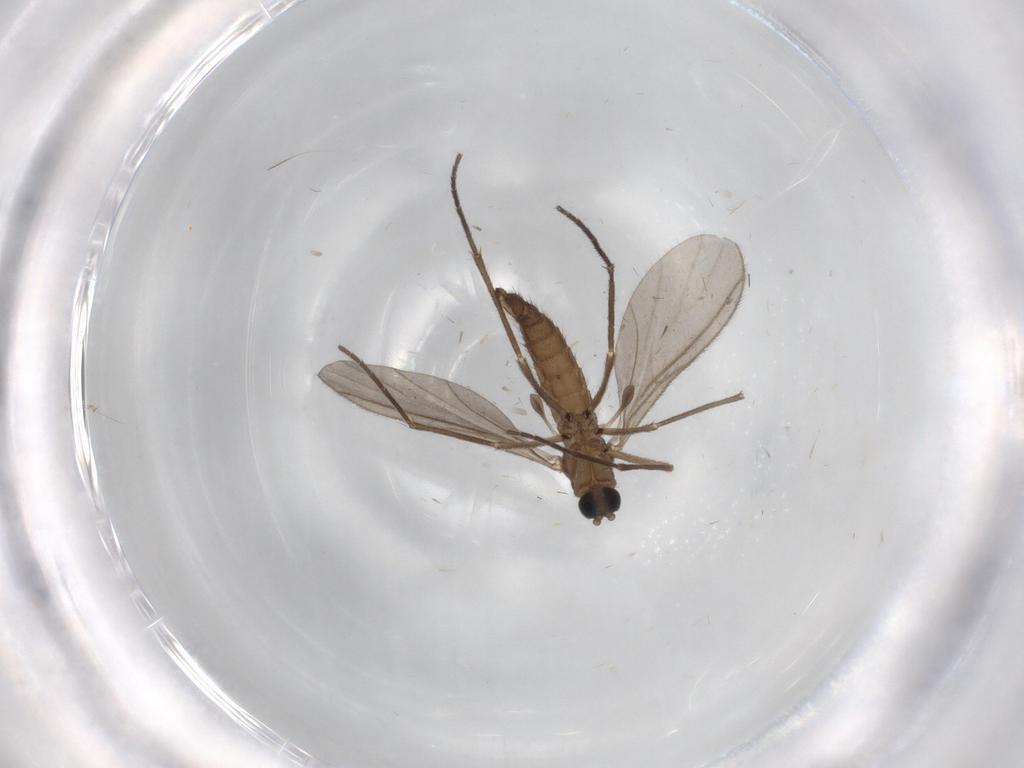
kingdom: Animalia
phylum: Arthropoda
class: Insecta
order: Diptera
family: Sciaridae
